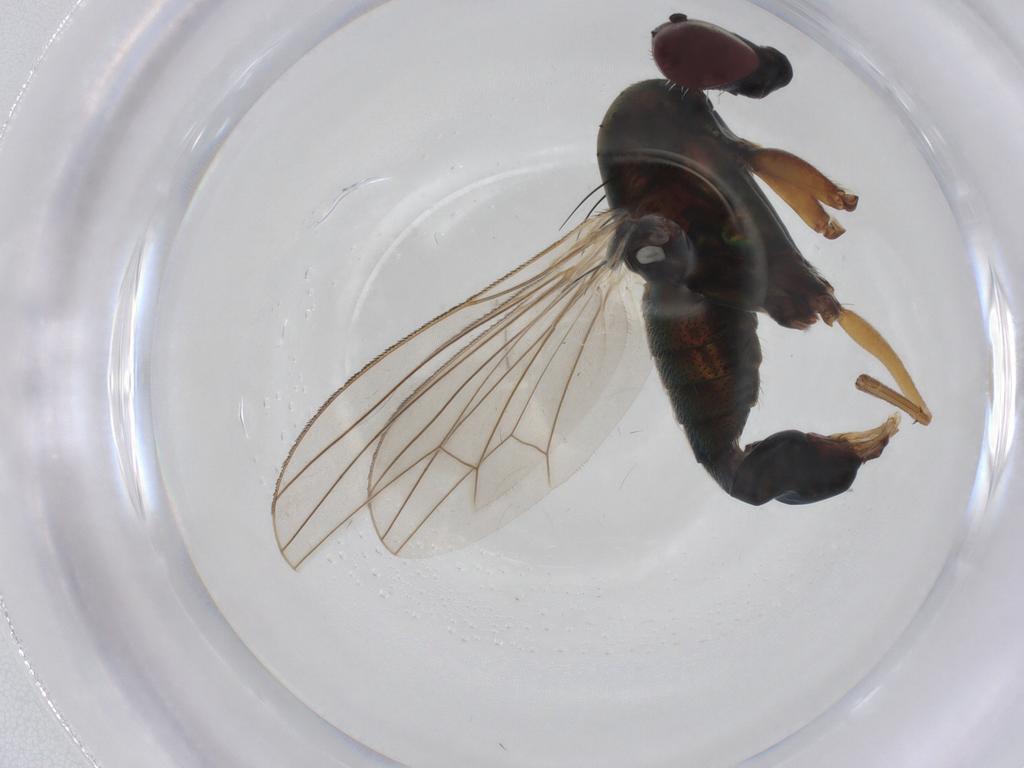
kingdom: Animalia
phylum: Arthropoda
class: Insecta
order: Diptera
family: Chironomidae
